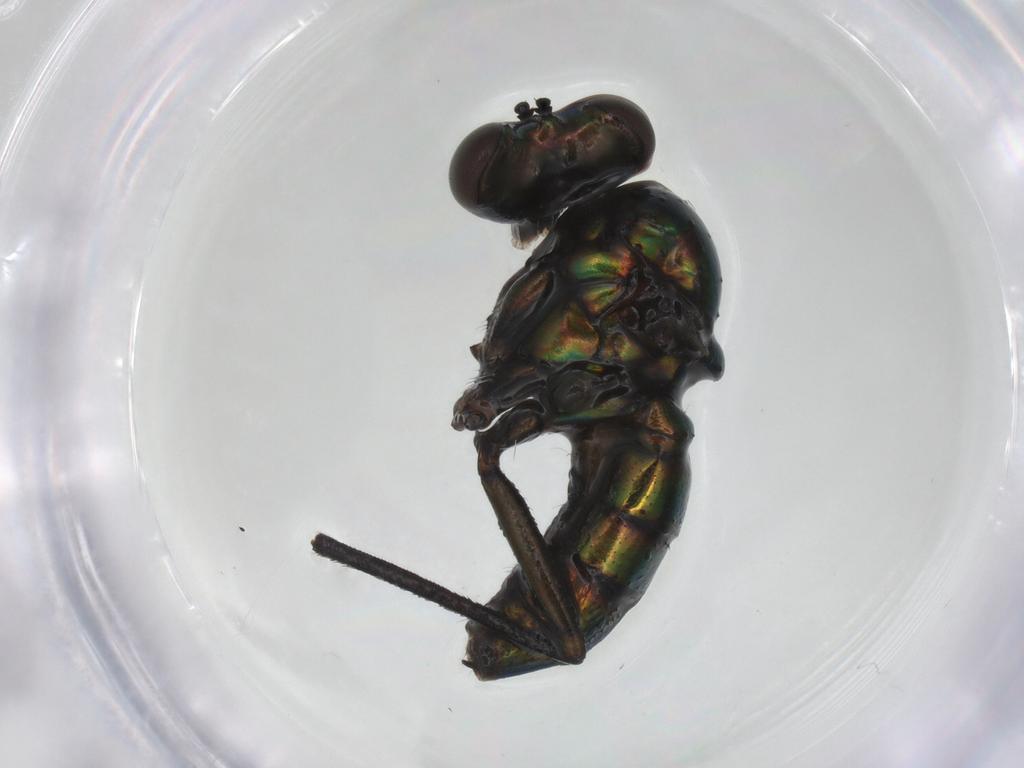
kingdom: Animalia
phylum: Arthropoda
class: Insecta
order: Diptera
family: Dolichopodidae
